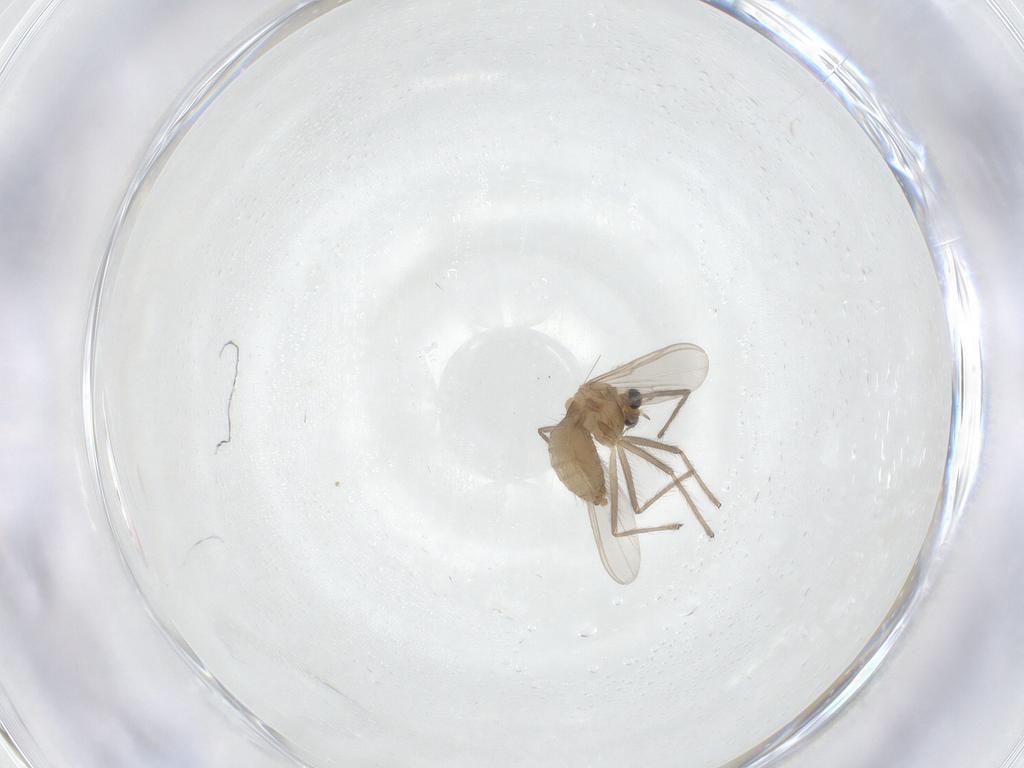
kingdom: Animalia
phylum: Arthropoda
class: Insecta
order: Diptera
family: Chironomidae
